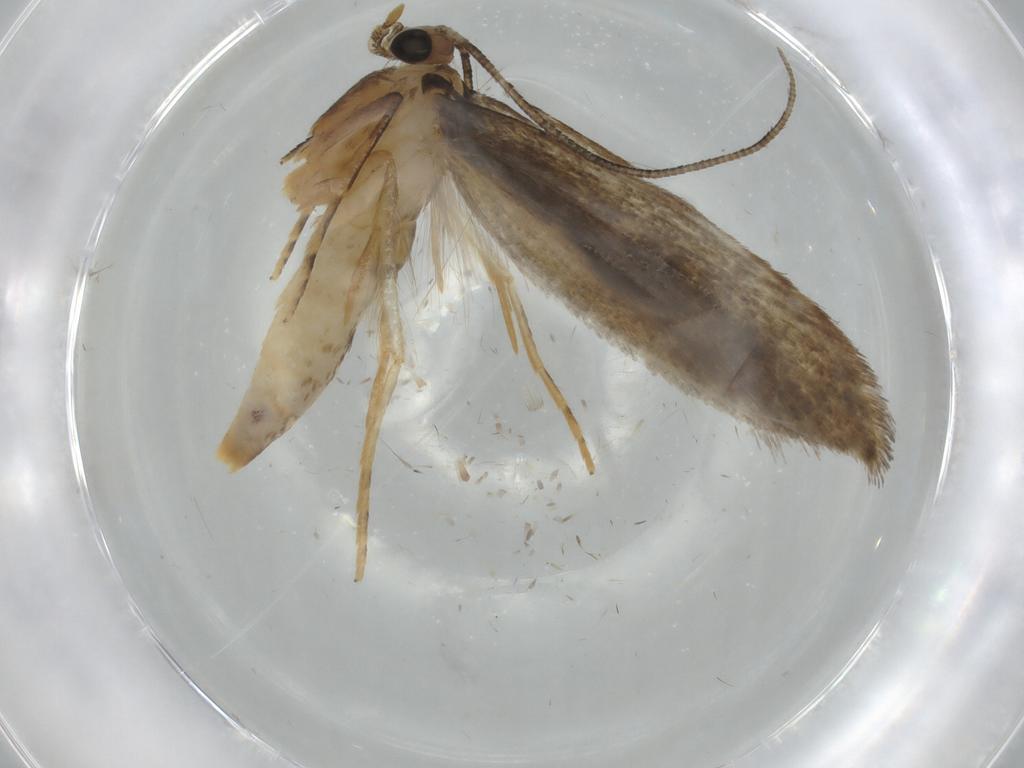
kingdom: Animalia
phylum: Arthropoda
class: Insecta
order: Lepidoptera
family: Tineidae
